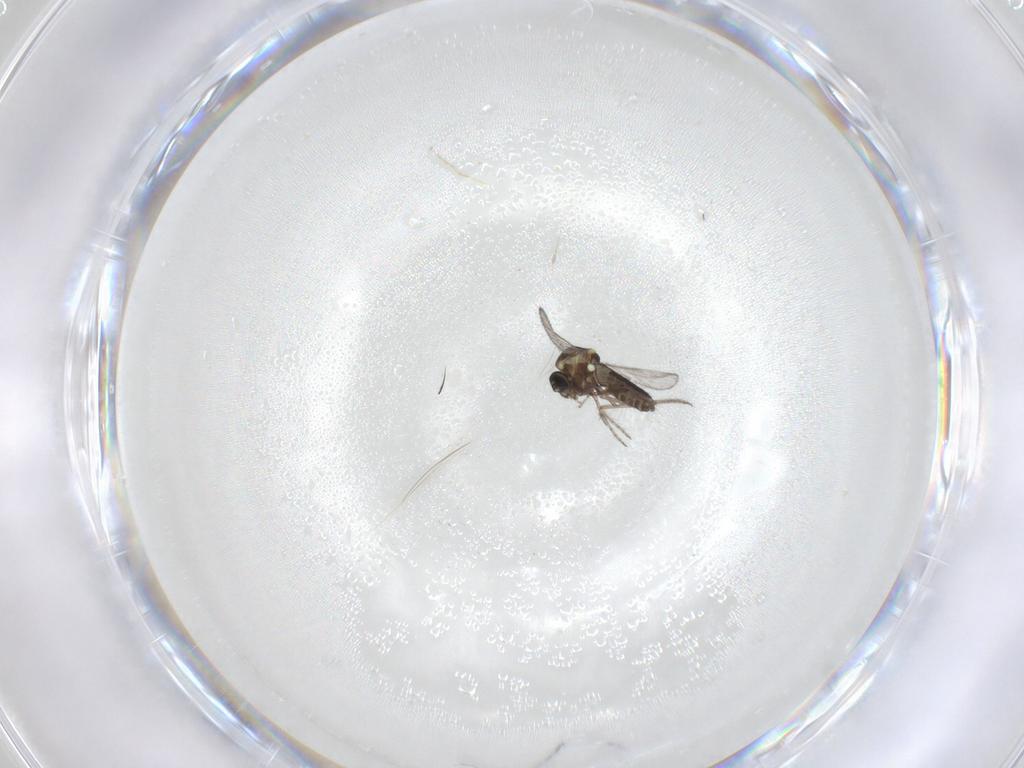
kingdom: Animalia
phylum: Arthropoda
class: Insecta
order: Diptera
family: Ceratopogonidae
